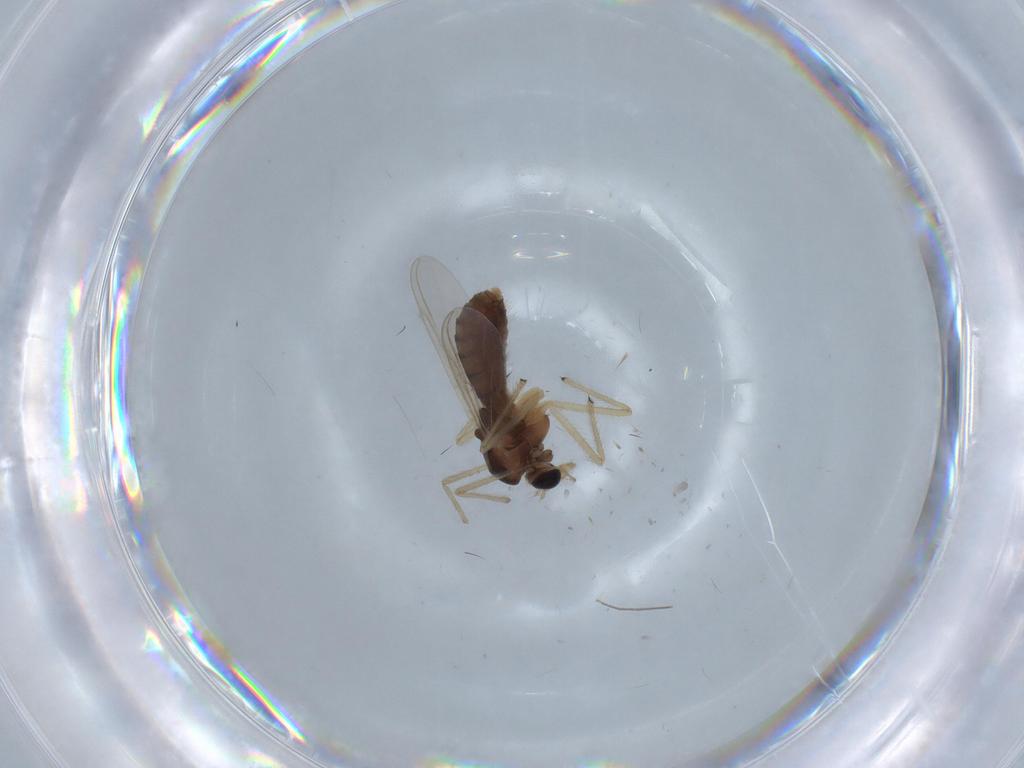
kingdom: Animalia
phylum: Arthropoda
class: Insecta
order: Diptera
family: Chironomidae
